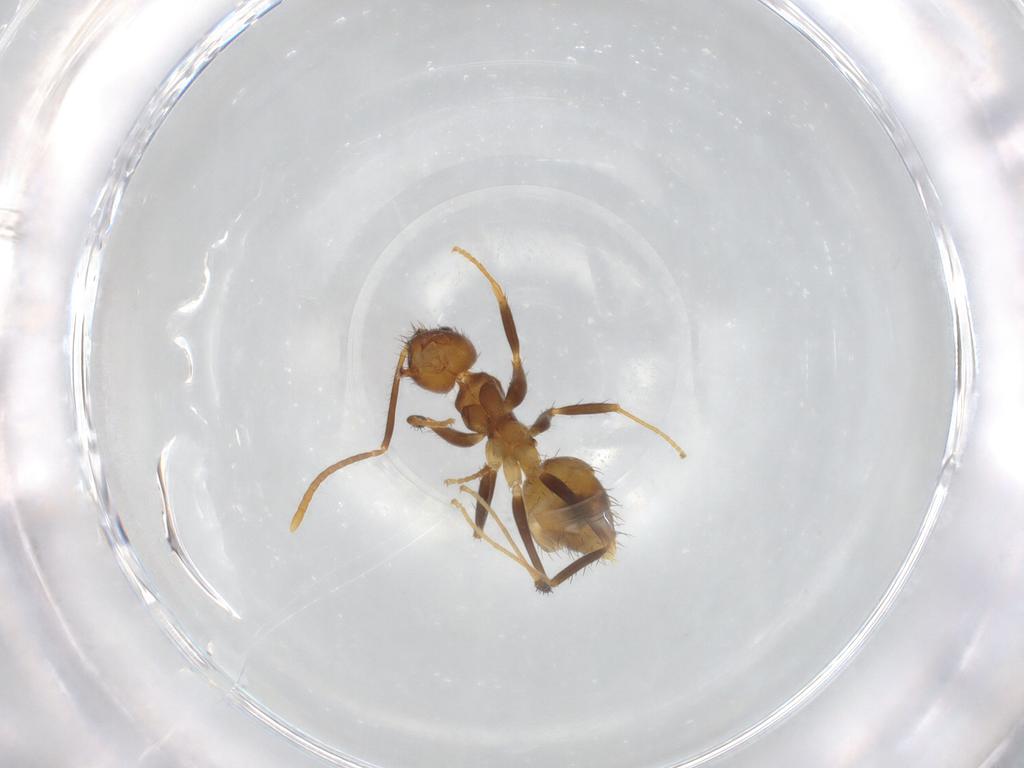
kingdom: Animalia
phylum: Arthropoda
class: Insecta
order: Hymenoptera
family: Formicidae
